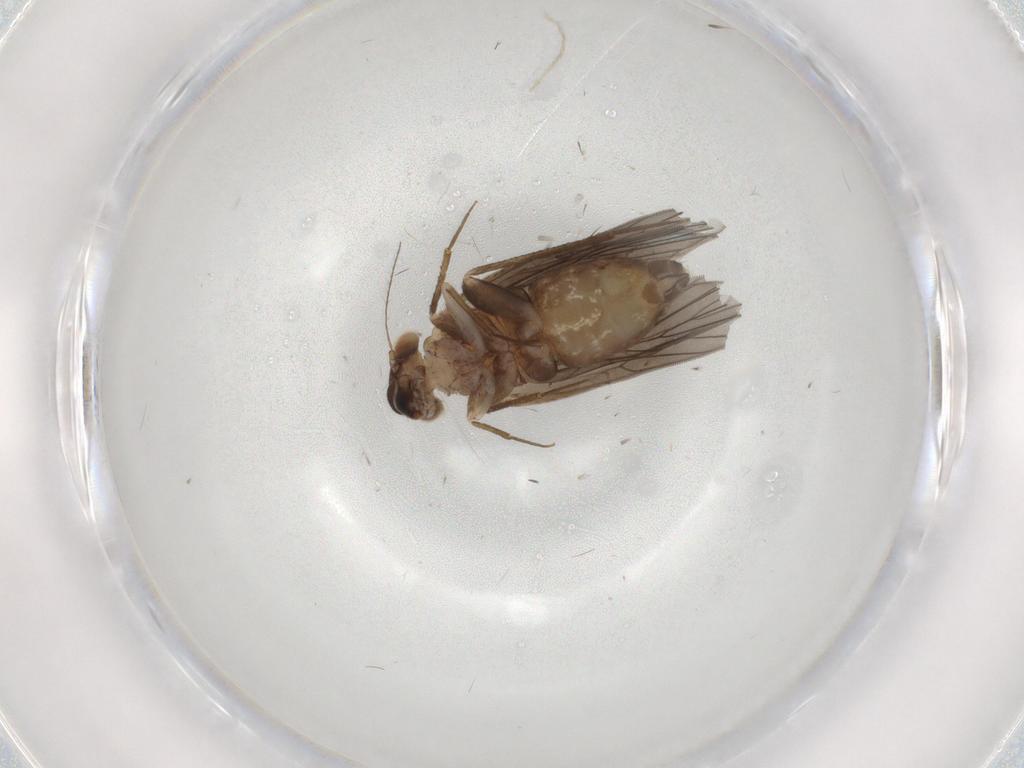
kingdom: Animalia
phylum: Arthropoda
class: Insecta
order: Psocodea
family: Lepidopsocidae
